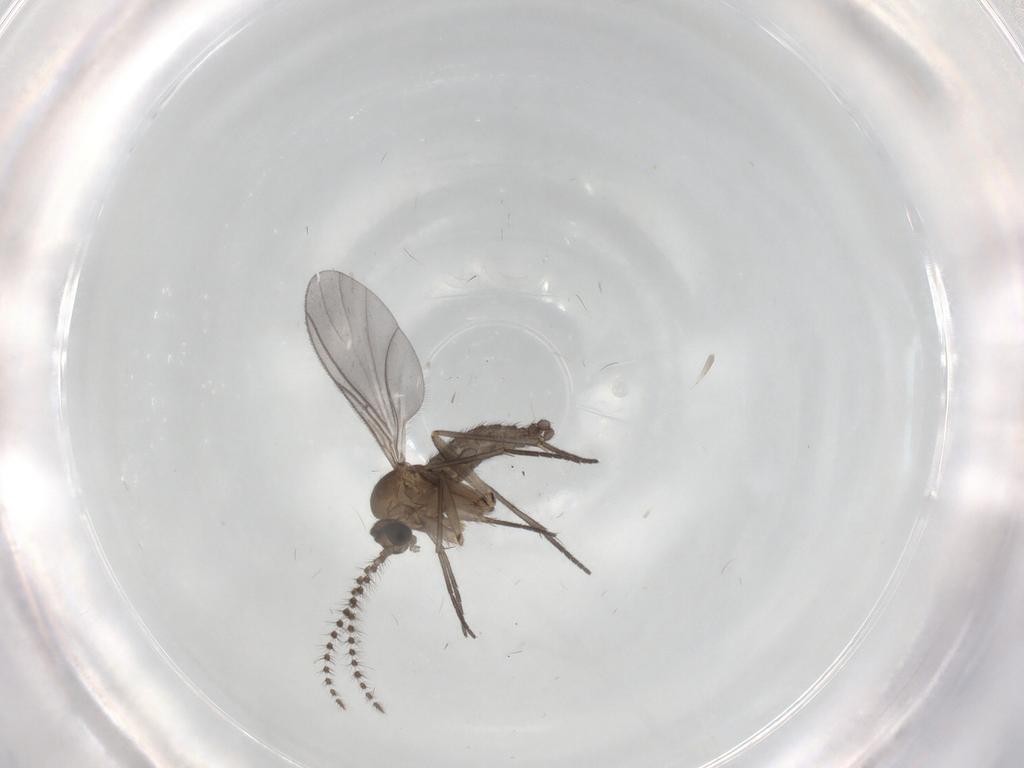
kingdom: Animalia
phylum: Arthropoda
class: Insecta
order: Diptera
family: Sciaridae
